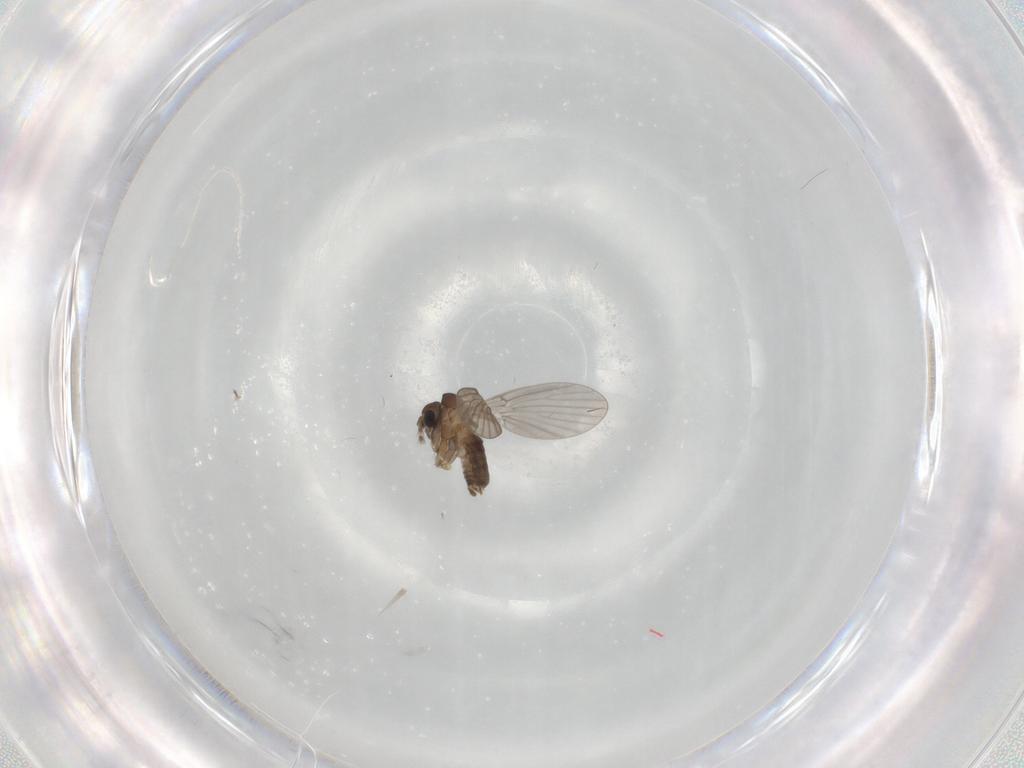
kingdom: Animalia
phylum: Arthropoda
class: Insecta
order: Diptera
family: Psychodidae
